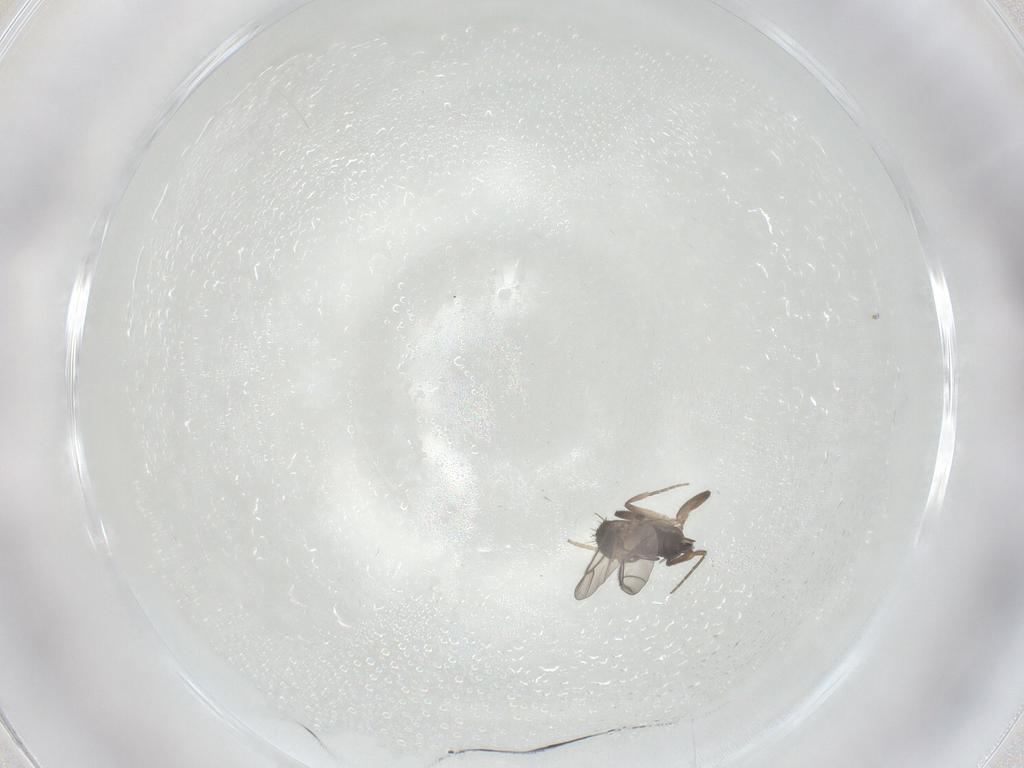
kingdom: Animalia
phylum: Arthropoda
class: Insecta
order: Diptera
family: Phoridae
